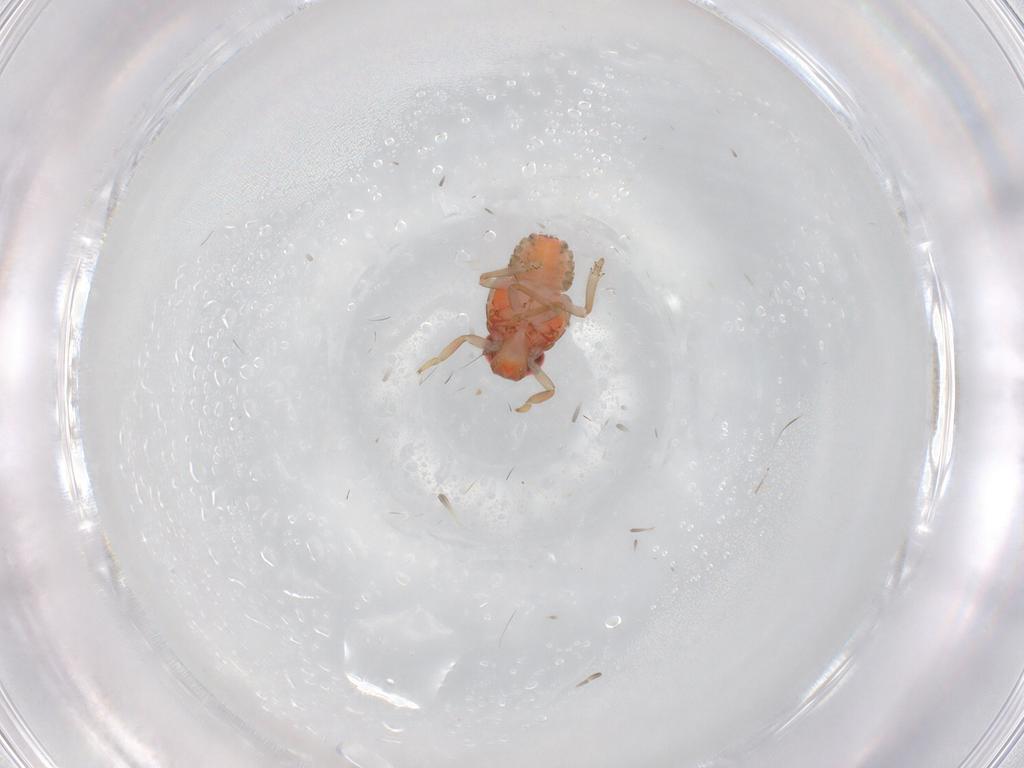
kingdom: Animalia
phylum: Arthropoda
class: Insecta
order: Hemiptera
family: Issidae
